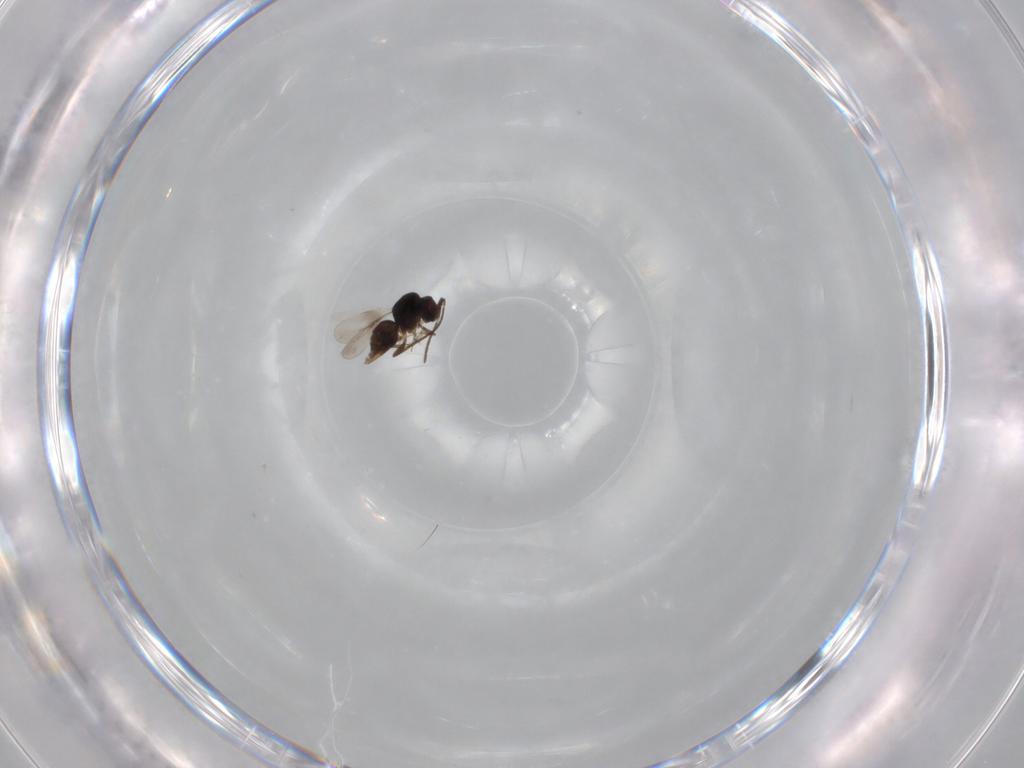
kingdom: Animalia
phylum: Arthropoda
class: Insecta
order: Hymenoptera
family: Ceraphronidae
